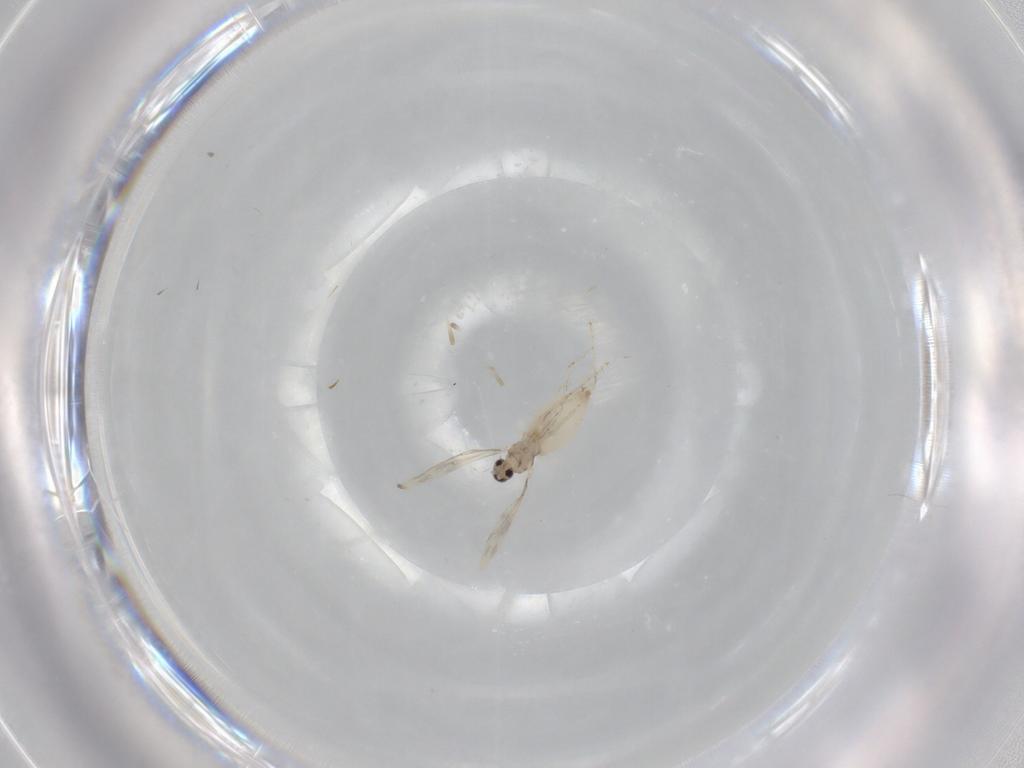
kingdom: Animalia
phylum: Arthropoda
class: Insecta
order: Diptera
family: Cecidomyiidae
